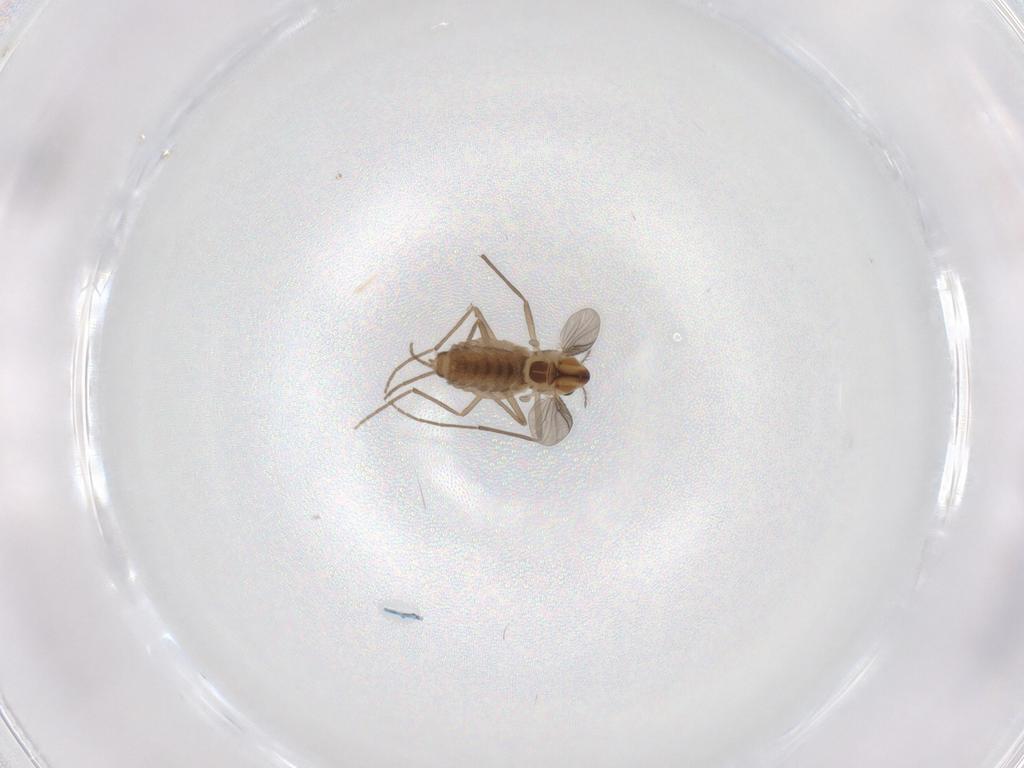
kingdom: Animalia
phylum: Arthropoda
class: Insecta
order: Diptera
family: Chironomidae
